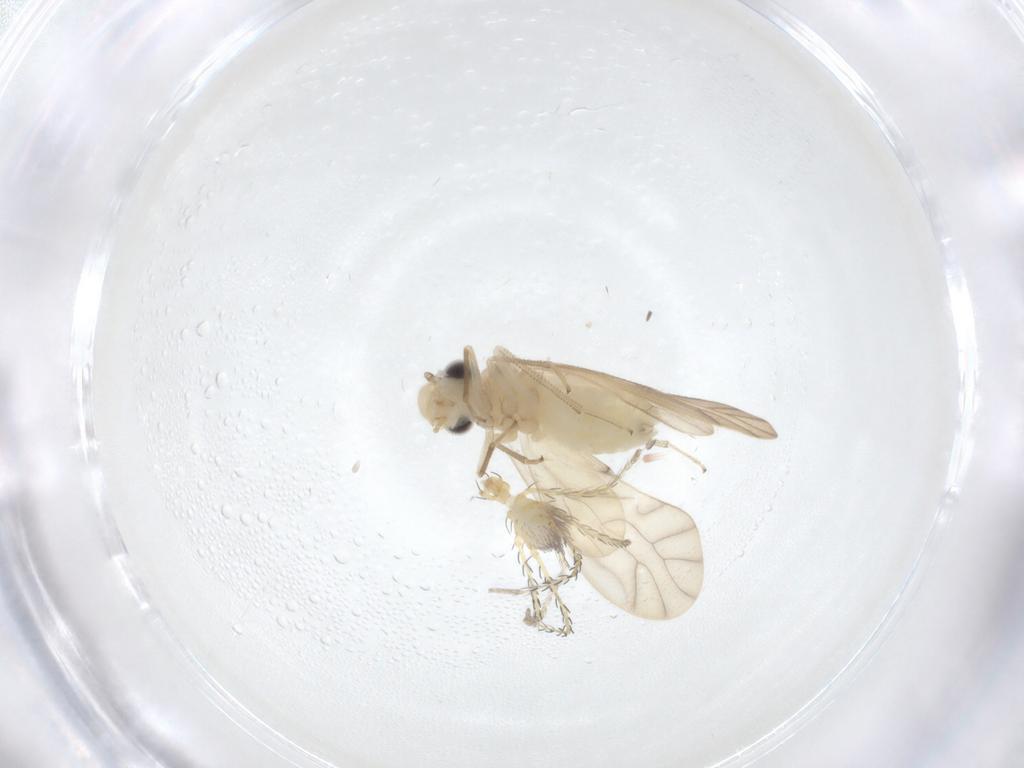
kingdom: Animalia
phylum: Arthropoda
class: Arachnida
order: Trombidiformes
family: Erythraeidae
